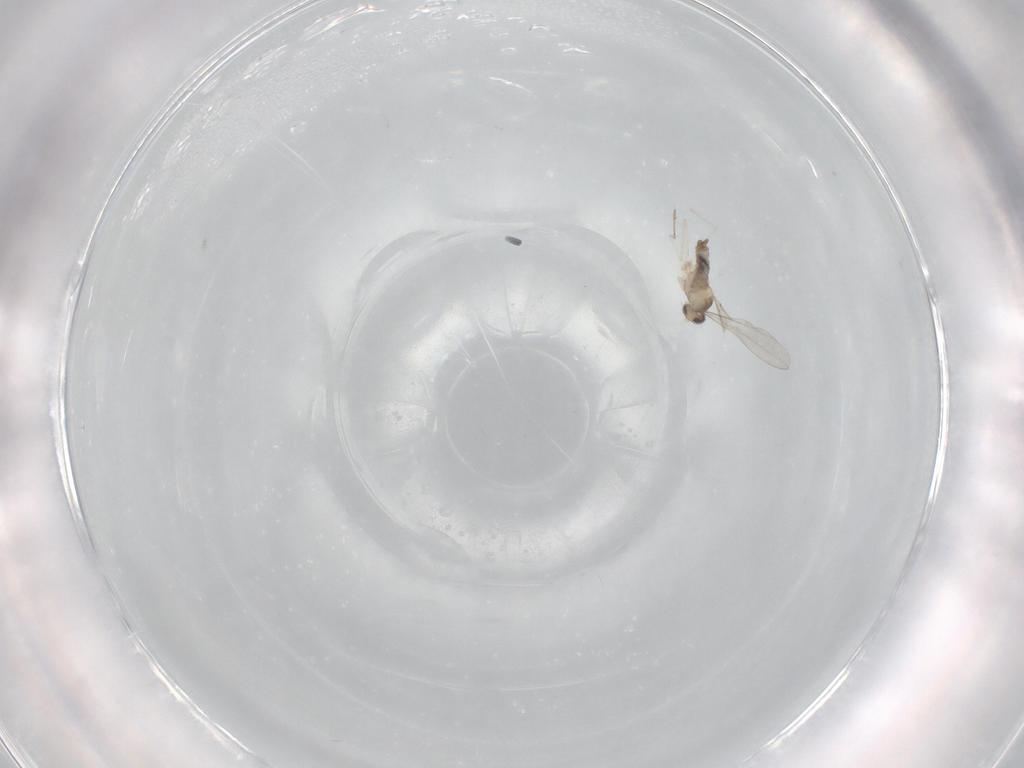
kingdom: Animalia
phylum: Arthropoda
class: Insecta
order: Diptera
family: Cecidomyiidae
